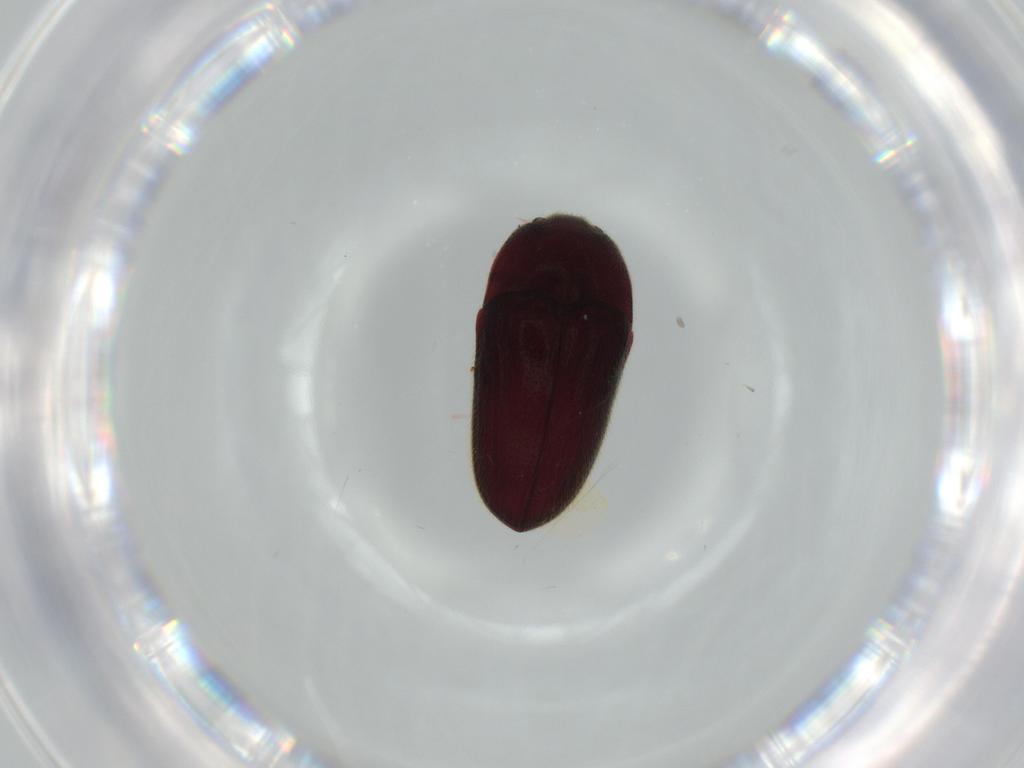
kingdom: Animalia
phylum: Arthropoda
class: Insecta
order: Coleoptera
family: Throscidae
